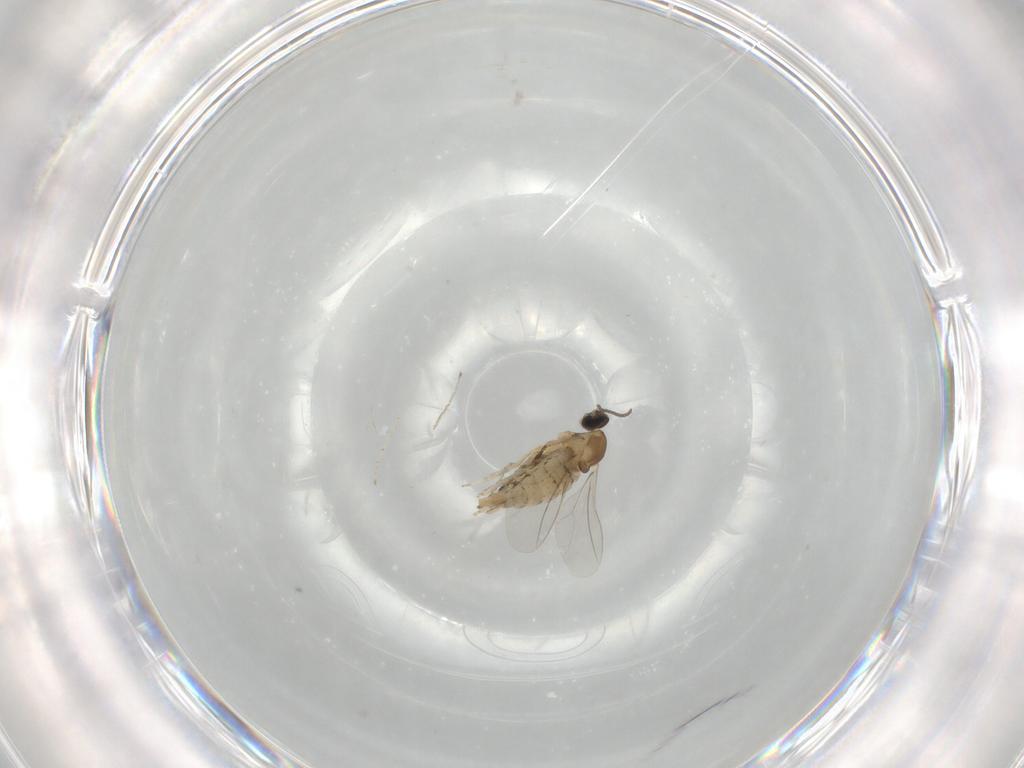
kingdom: Animalia
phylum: Arthropoda
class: Insecta
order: Diptera
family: Cecidomyiidae
